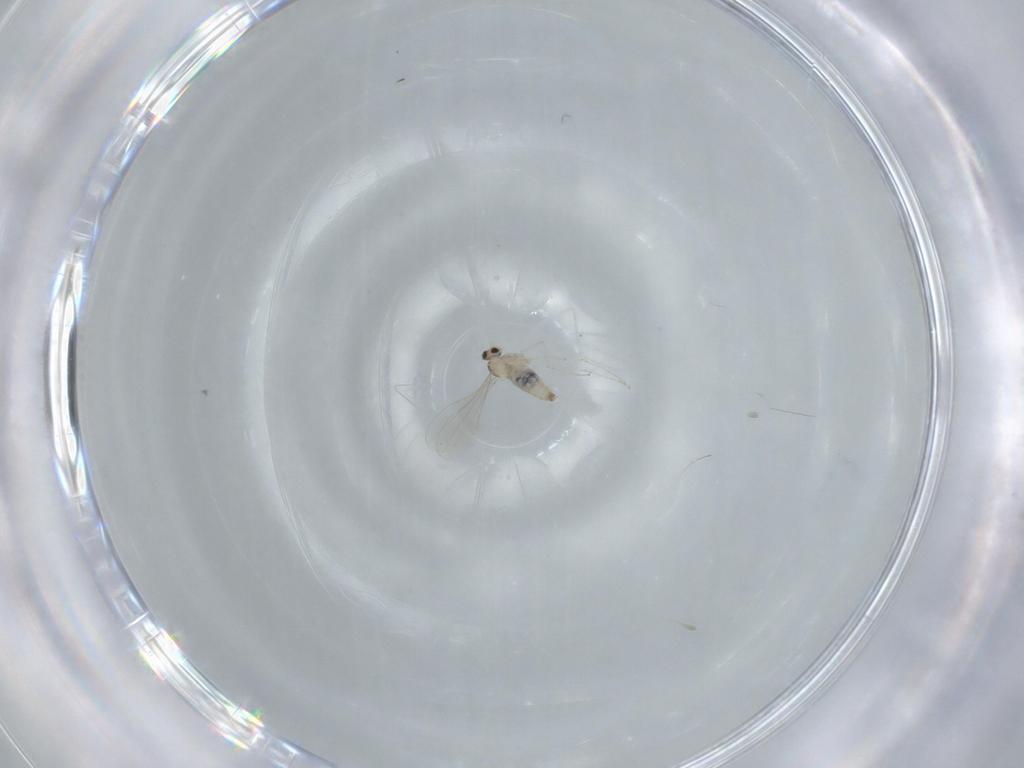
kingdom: Animalia
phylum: Arthropoda
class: Insecta
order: Diptera
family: Cecidomyiidae
